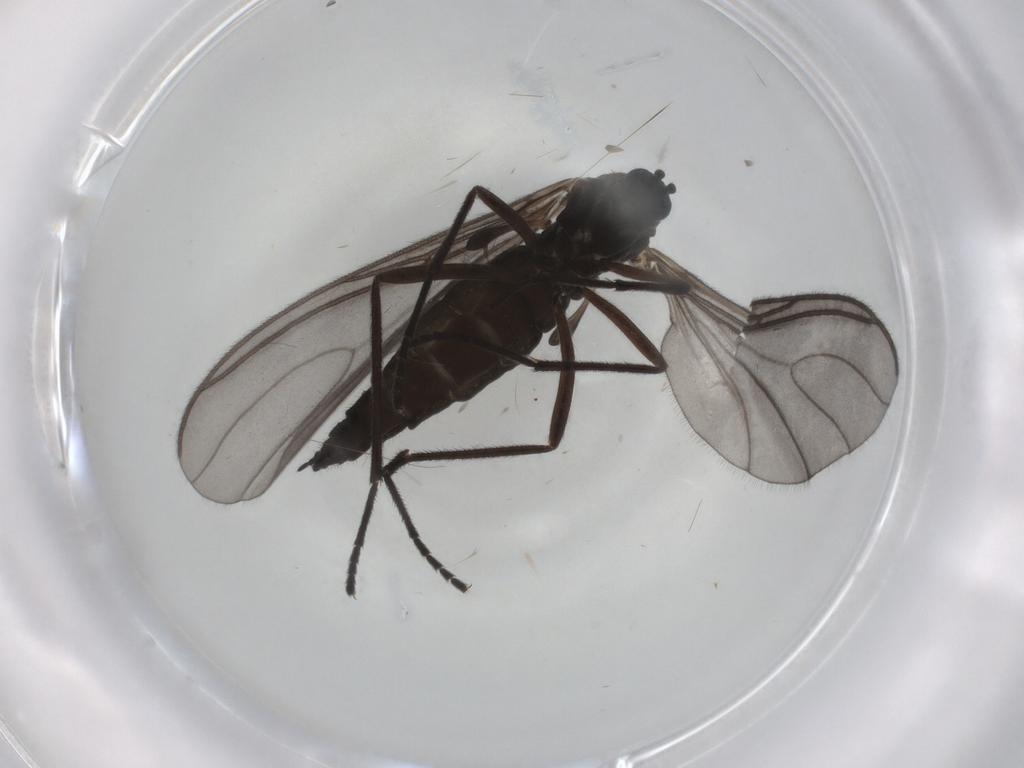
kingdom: Animalia
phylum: Arthropoda
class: Insecta
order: Diptera
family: Sciaridae
